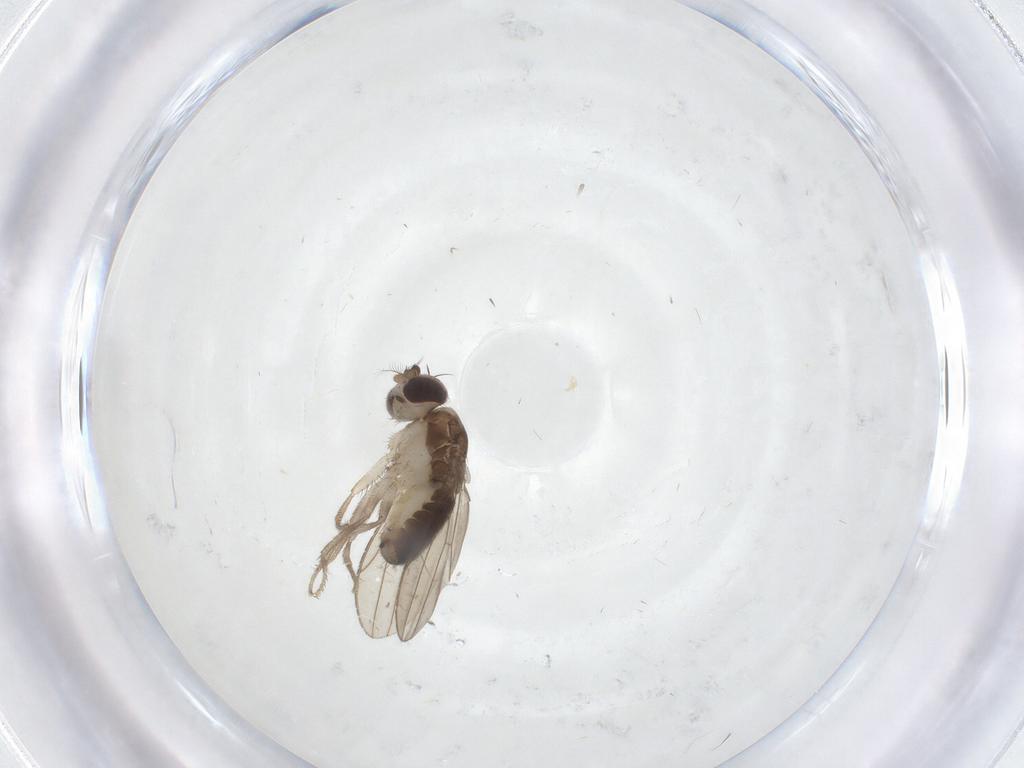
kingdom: Animalia
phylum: Arthropoda
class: Insecta
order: Diptera
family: Drosophilidae
